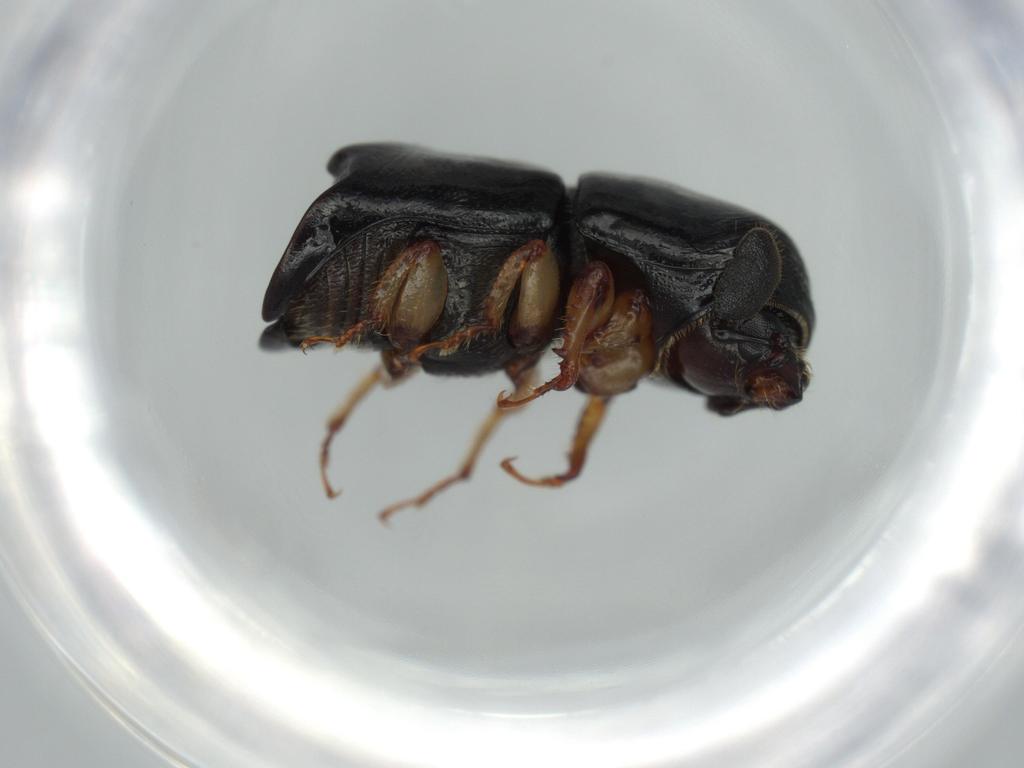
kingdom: Animalia
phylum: Arthropoda
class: Insecta
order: Coleoptera
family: Curculionidae
